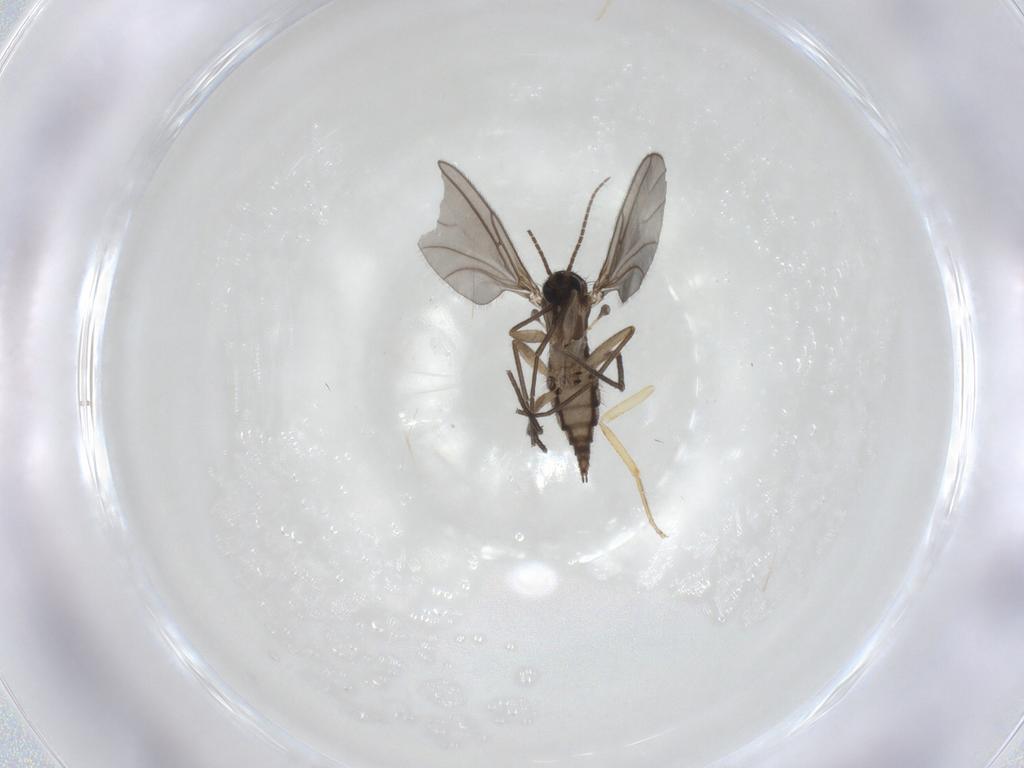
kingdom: Animalia
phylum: Arthropoda
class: Insecta
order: Diptera
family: Sciaridae
